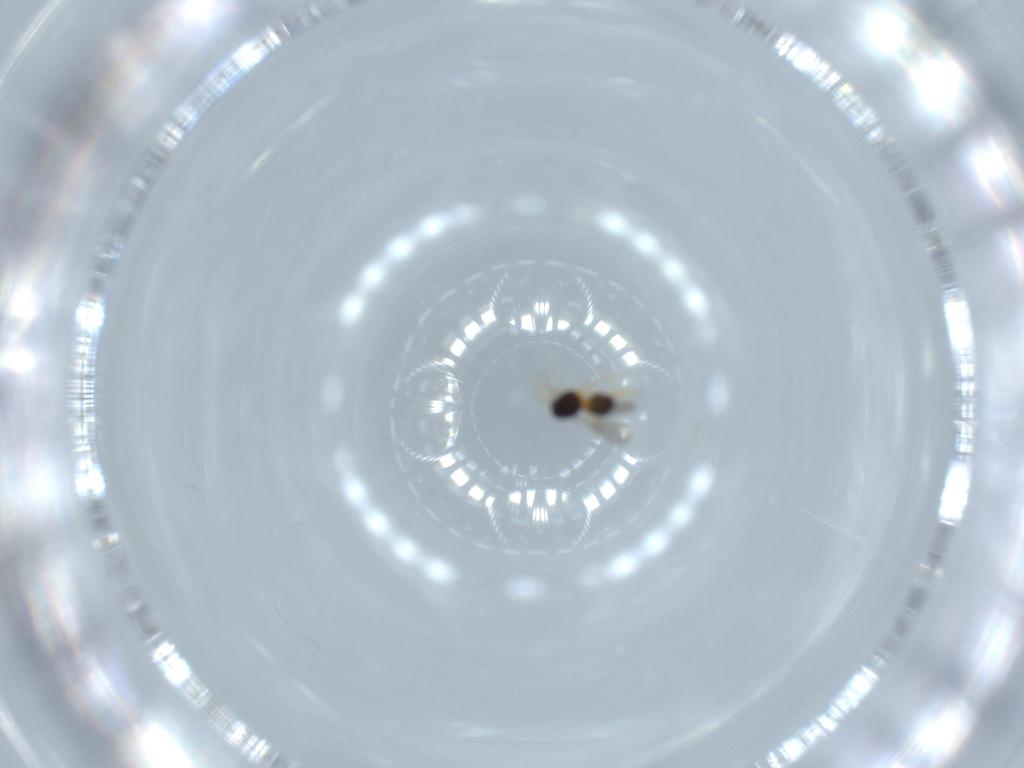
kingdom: Animalia
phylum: Arthropoda
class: Insecta
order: Hymenoptera
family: Scelionidae
